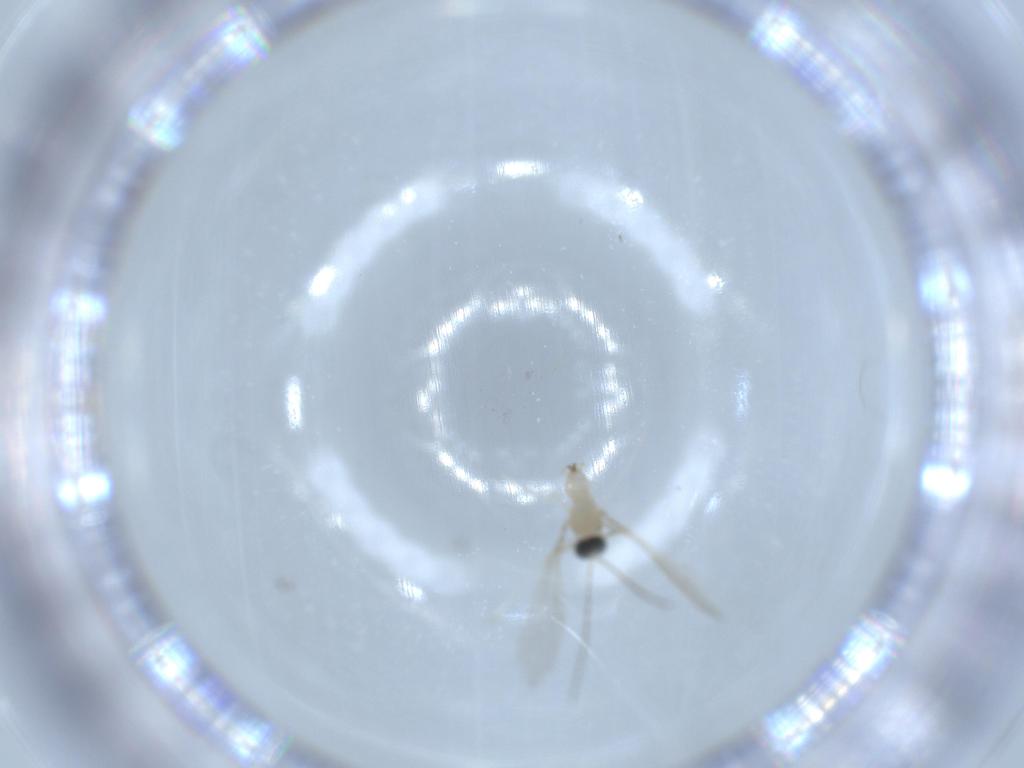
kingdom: Animalia
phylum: Arthropoda
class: Insecta
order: Diptera
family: Cecidomyiidae
